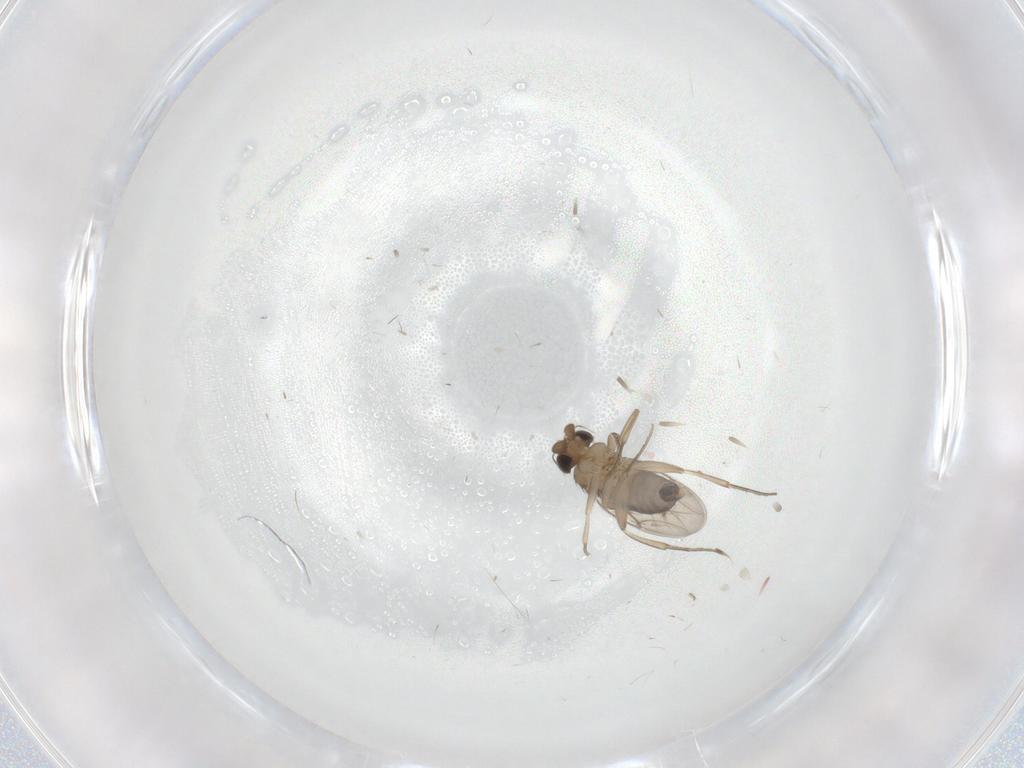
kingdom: Animalia
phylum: Arthropoda
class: Insecta
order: Diptera
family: Phoridae
